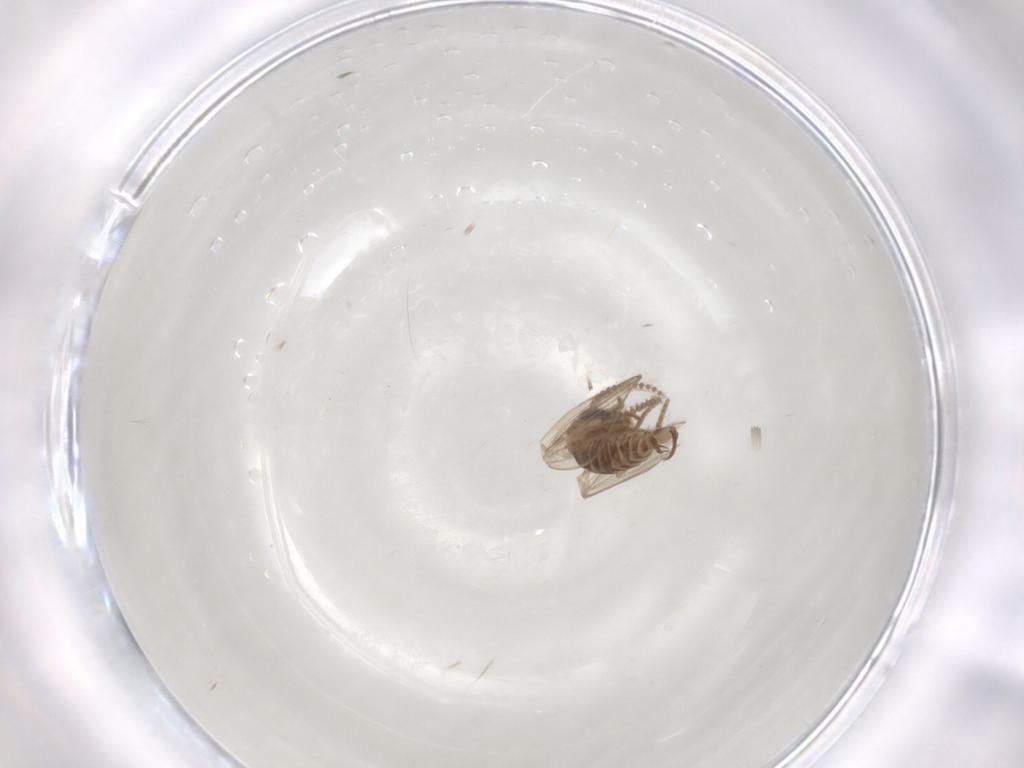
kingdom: Animalia
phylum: Arthropoda
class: Insecta
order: Diptera
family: Psychodidae
